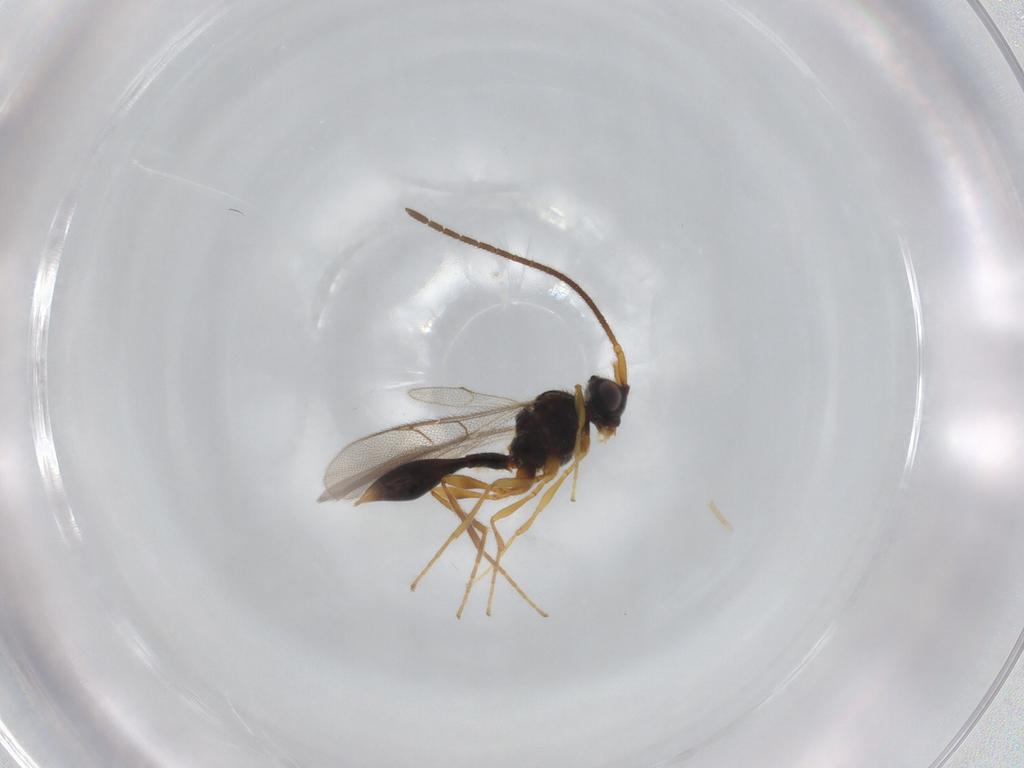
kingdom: Animalia
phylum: Arthropoda
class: Insecta
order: Hymenoptera
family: Diapriidae
